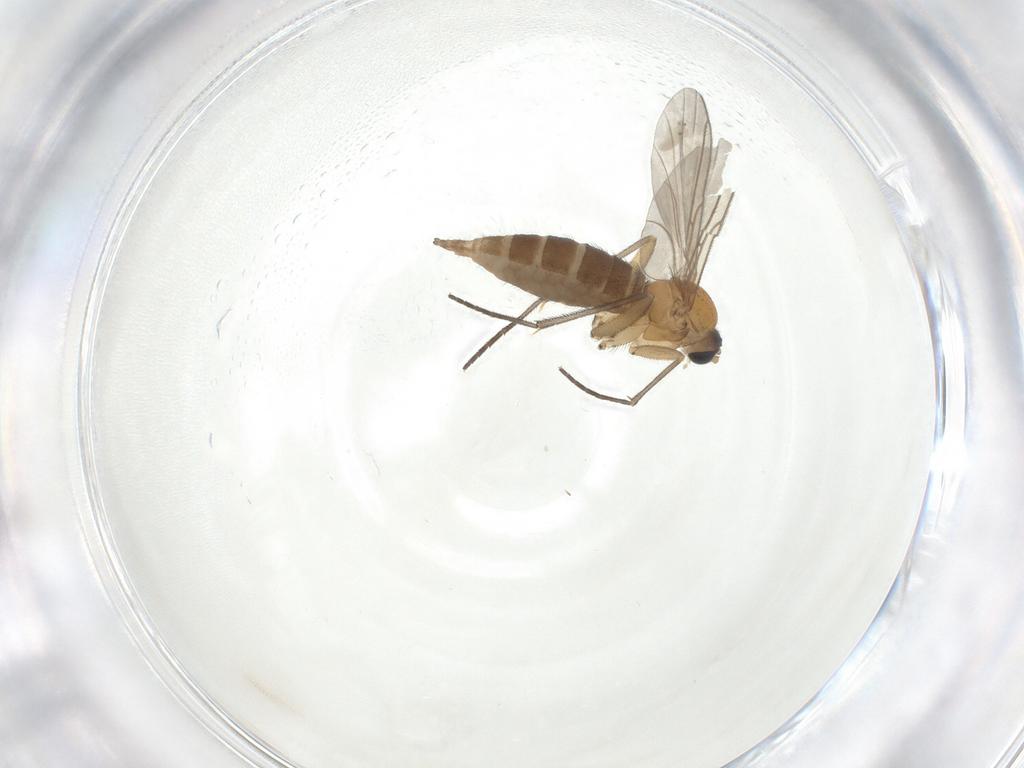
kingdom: Animalia
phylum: Arthropoda
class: Insecta
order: Diptera
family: Sciaridae
